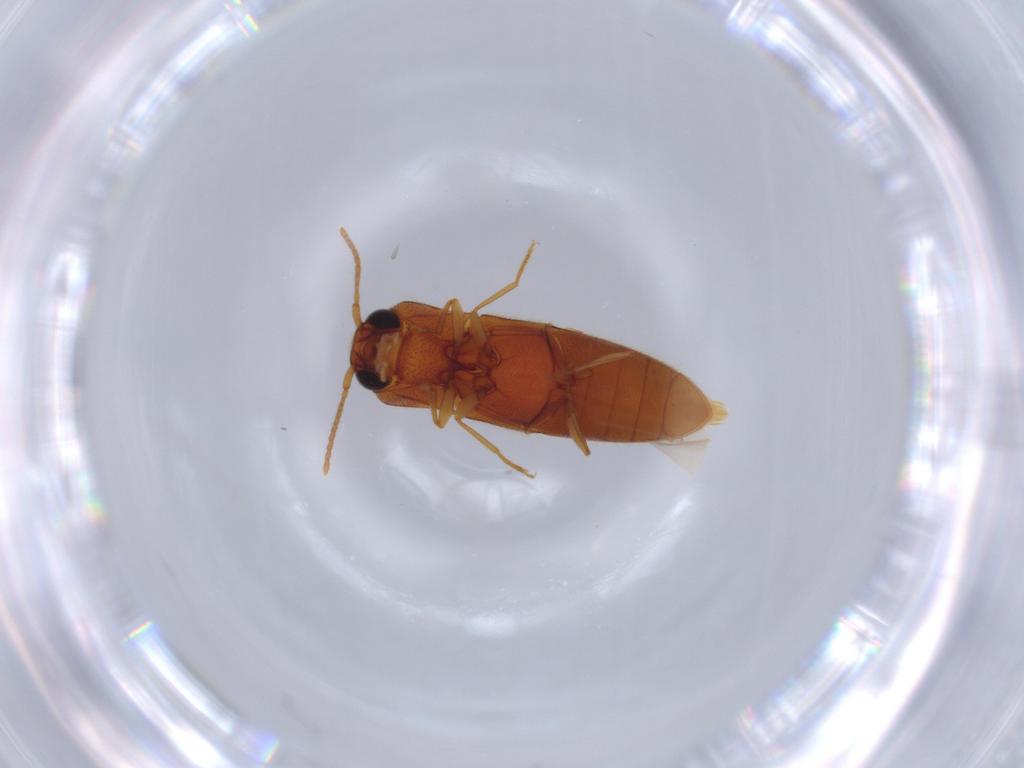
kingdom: Animalia
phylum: Arthropoda
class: Insecta
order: Coleoptera
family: Elateridae
